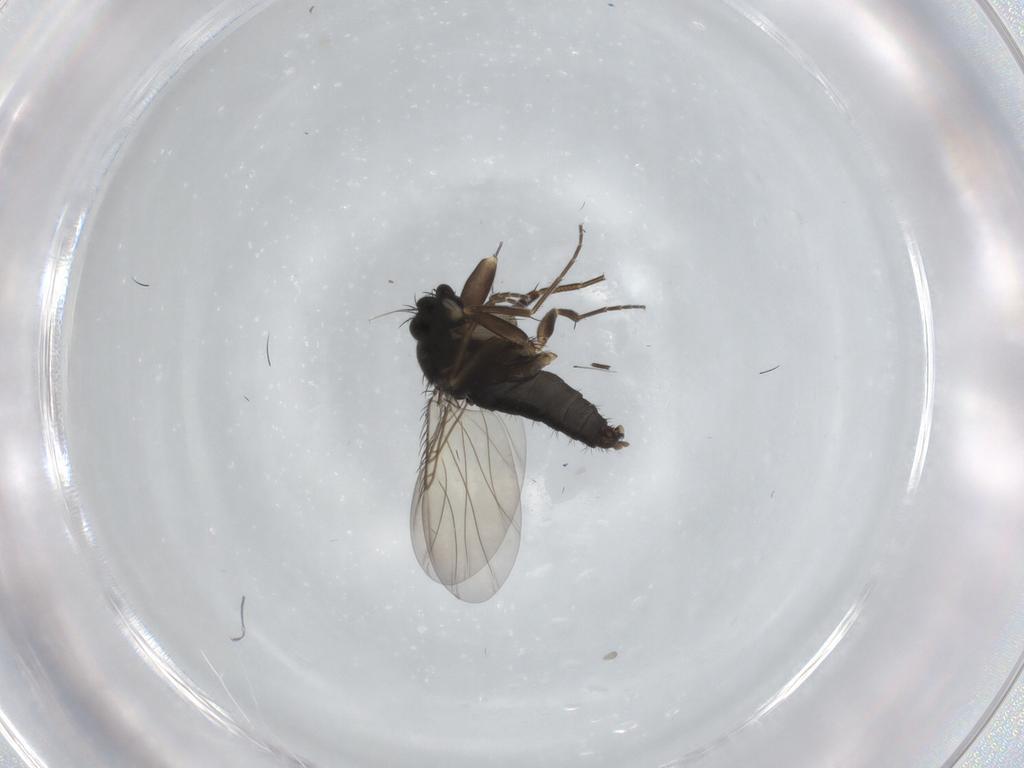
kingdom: Animalia
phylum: Arthropoda
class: Insecta
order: Diptera
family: Phoridae
